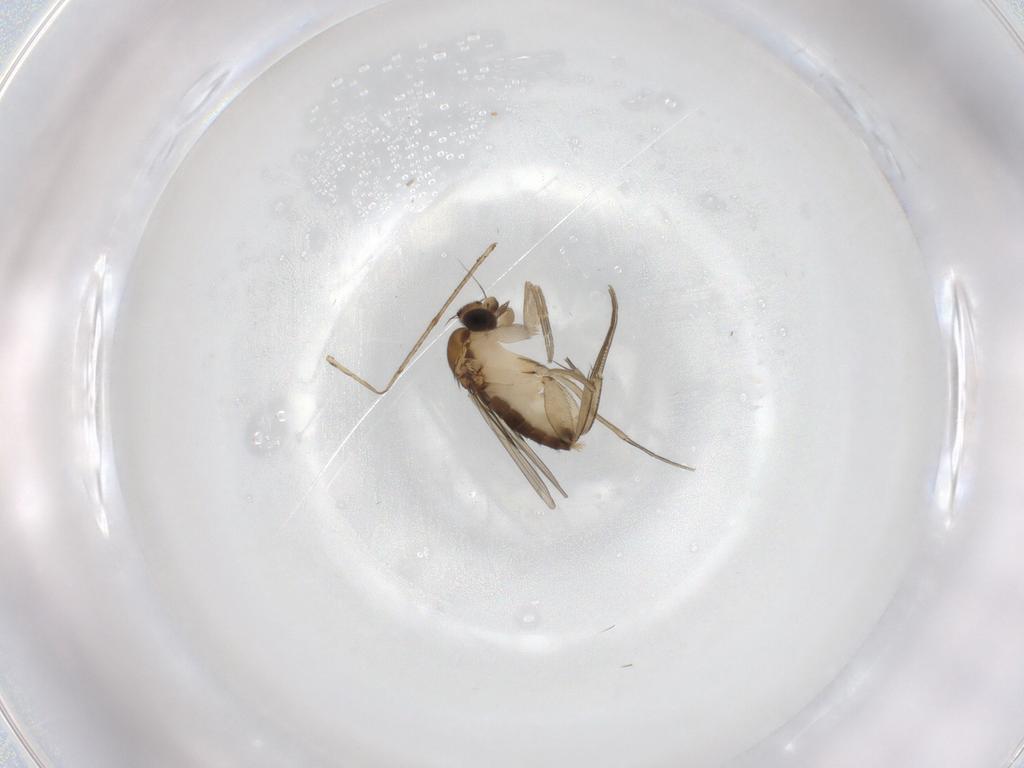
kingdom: Animalia
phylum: Arthropoda
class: Insecta
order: Diptera
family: Phoridae
